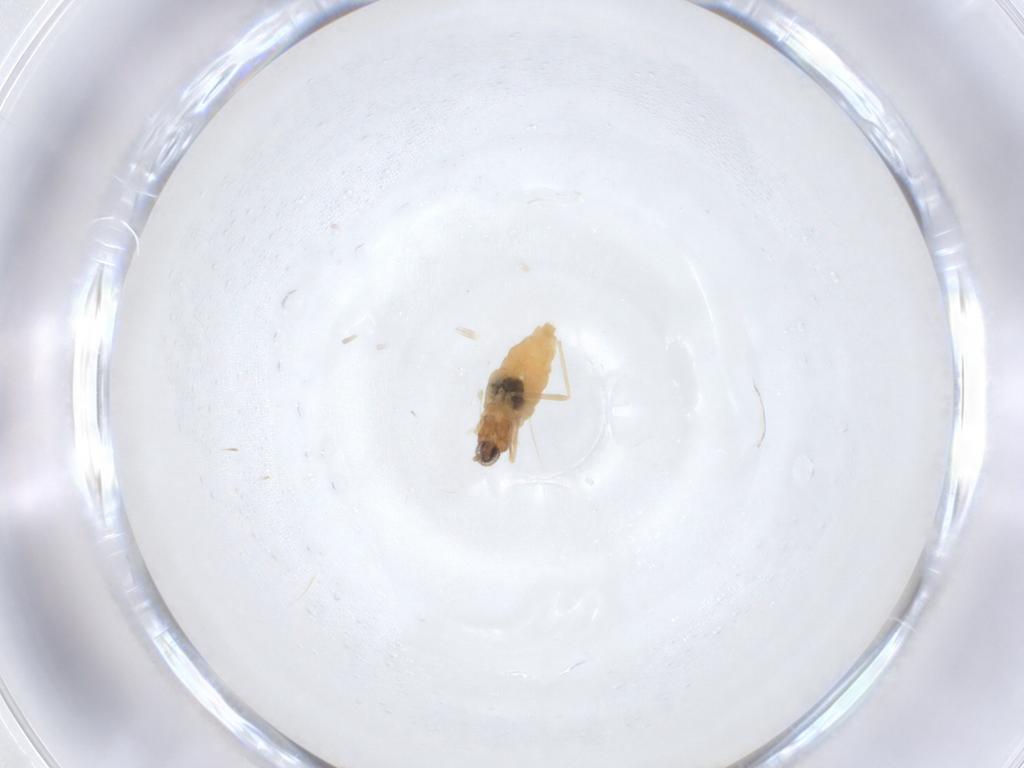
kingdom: Animalia
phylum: Arthropoda
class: Insecta
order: Diptera
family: Cecidomyiidae
